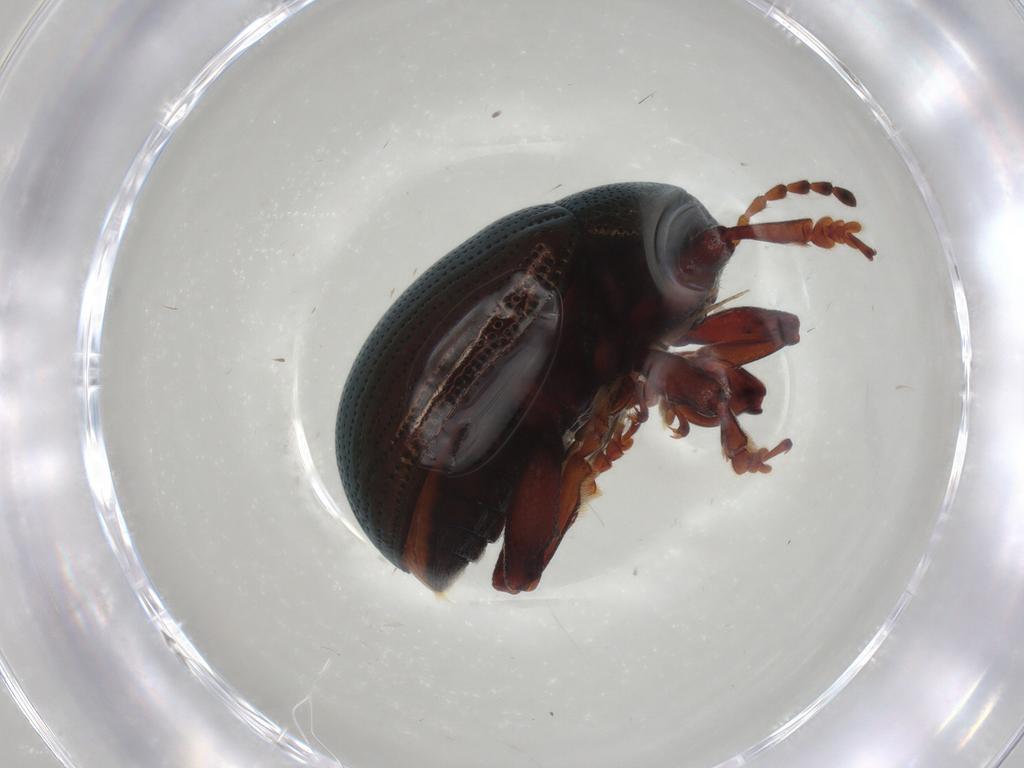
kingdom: Animalia
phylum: Arthropoda
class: Insecta
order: Coleoptera
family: Chrysomelidae
